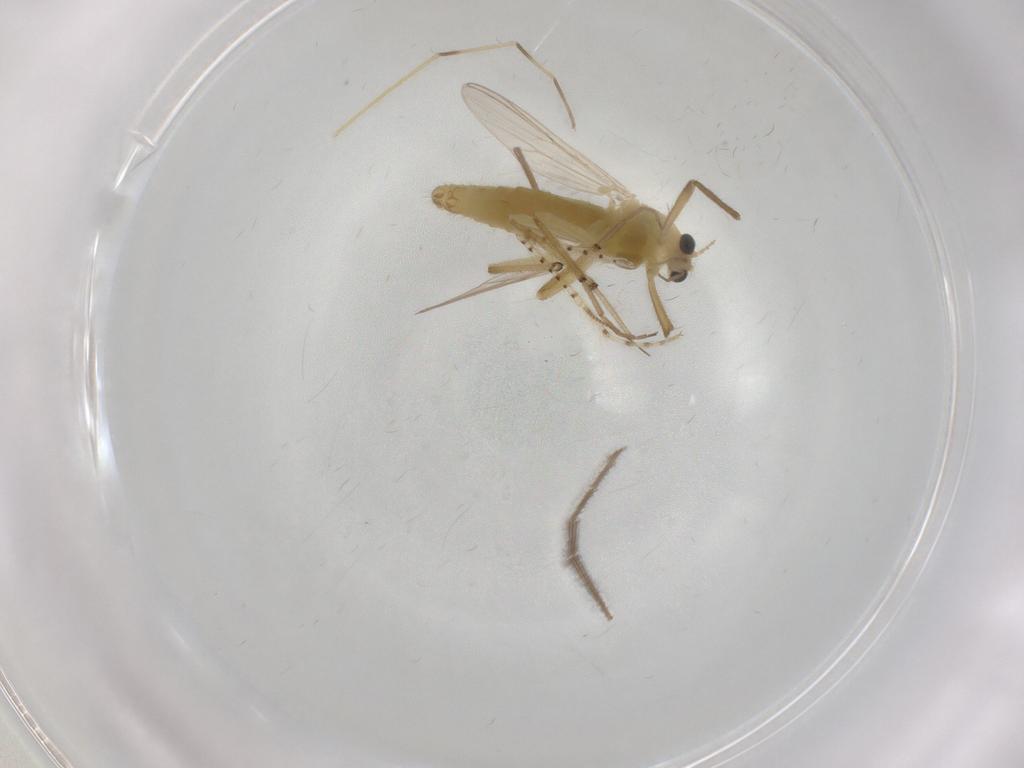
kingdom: Animalia
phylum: Arthropoda
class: Insecta
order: Diptera
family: Chironomidae
